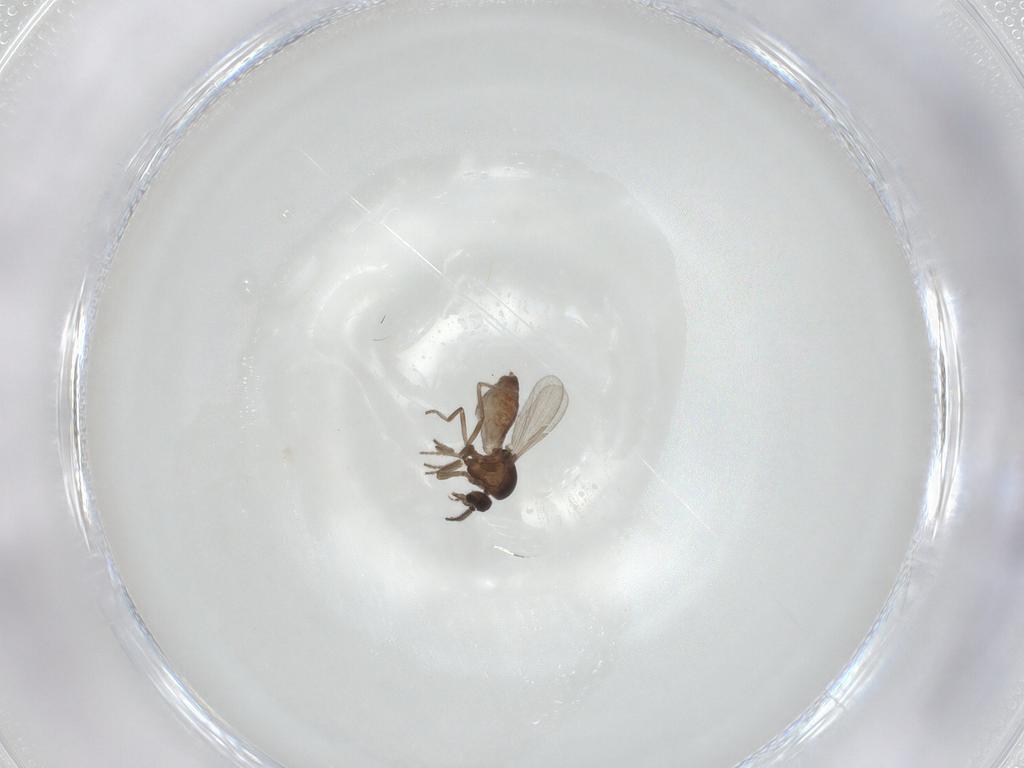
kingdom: Animalia
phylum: Arthropoda
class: Insecta
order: Diptera
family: Ceratopogonidae
